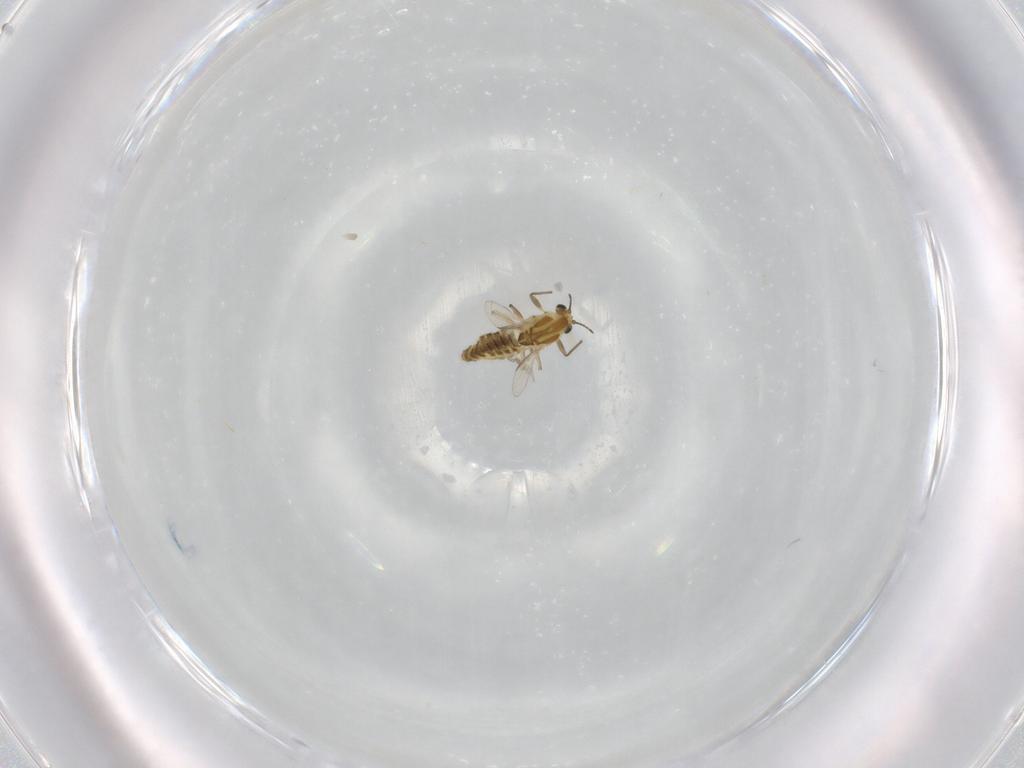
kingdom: Animalia
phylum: Arthropoda
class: Insecta
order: Diptera
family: Chironomidae
